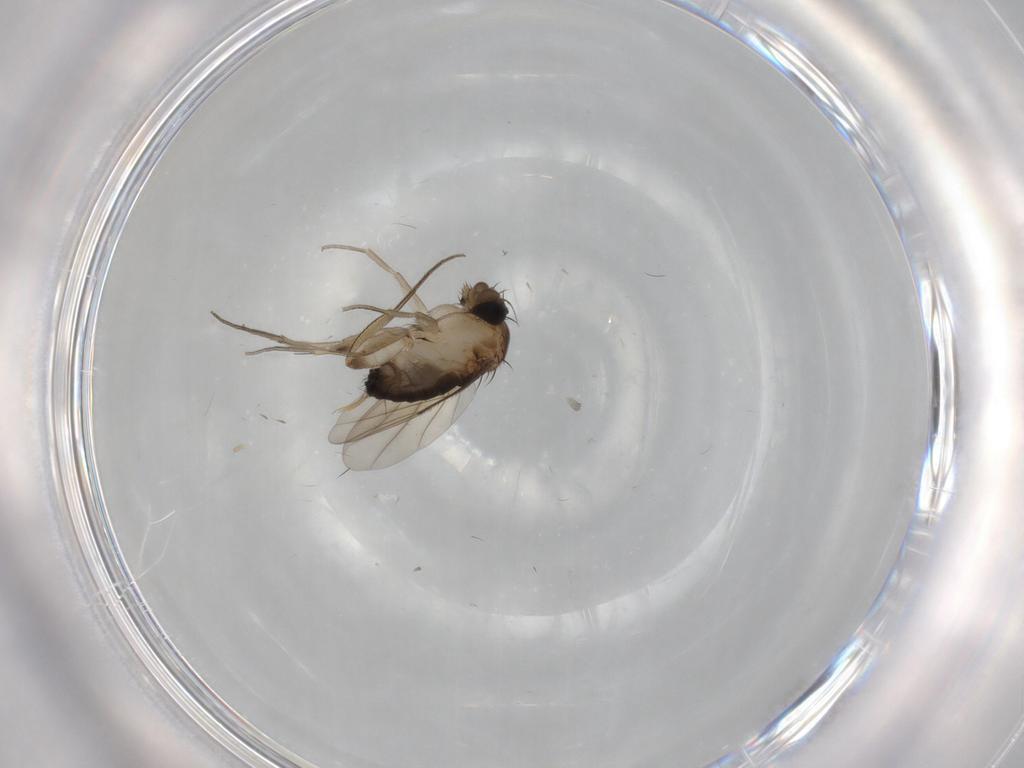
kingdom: Animalia
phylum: Arthropoda
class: Insecta
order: Diptera
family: Phoridae
